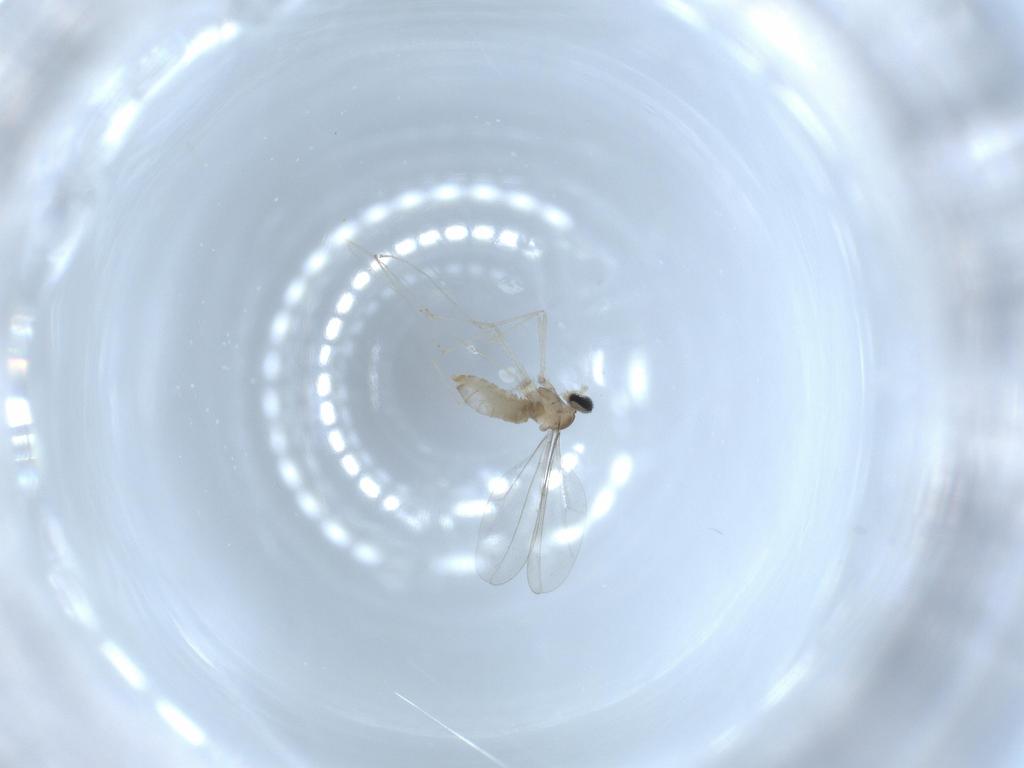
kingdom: Animalia
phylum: Arthropoda
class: Insecta
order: Diptera
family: Cecidomyiidae
